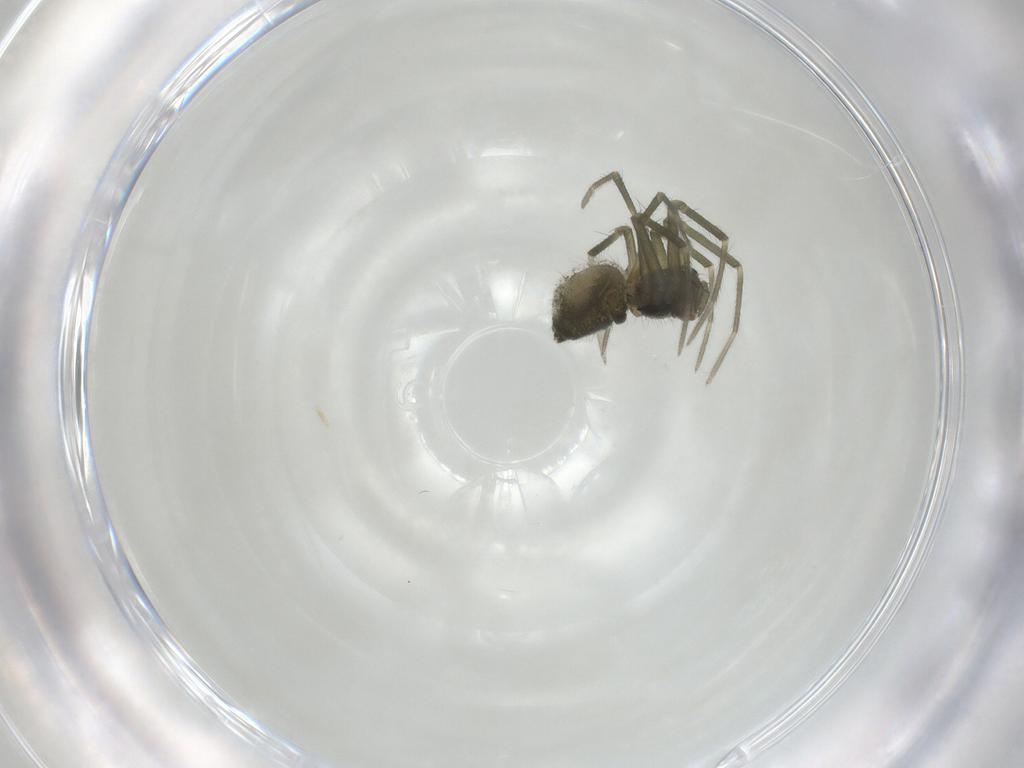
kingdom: Animalia
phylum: Arthropoda
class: Arachnida
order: Araneae
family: Linyphiidae
